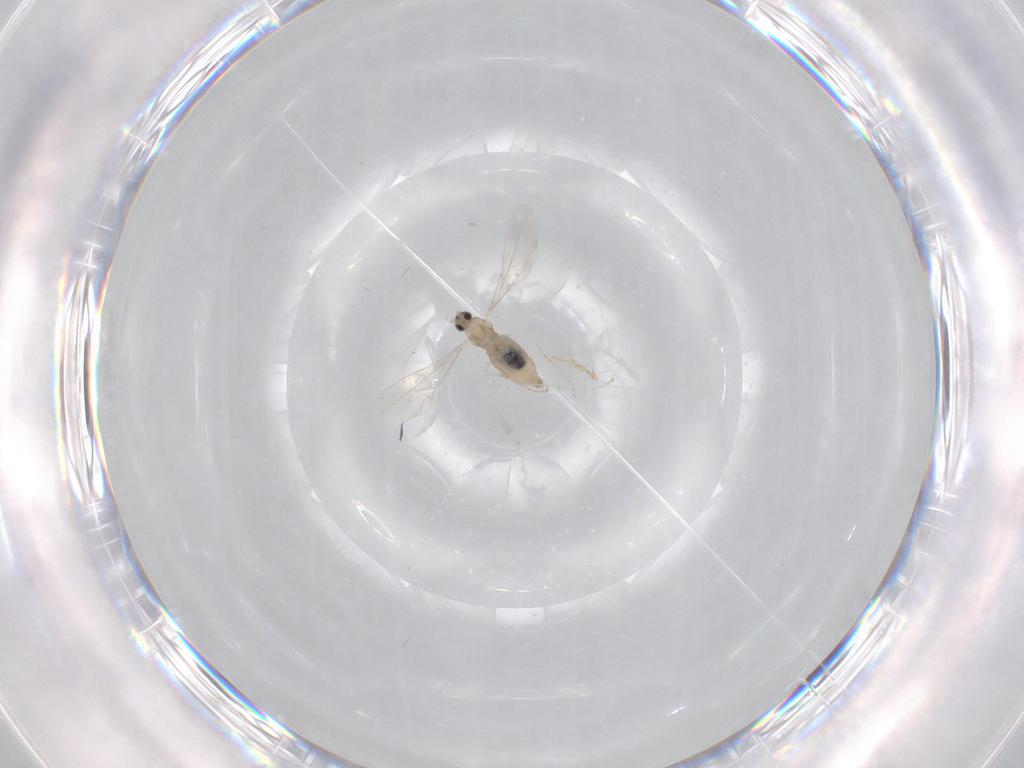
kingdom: Animalia
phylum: Arthropoda
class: Insecta
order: Diptera
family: Cecidomyiidae
